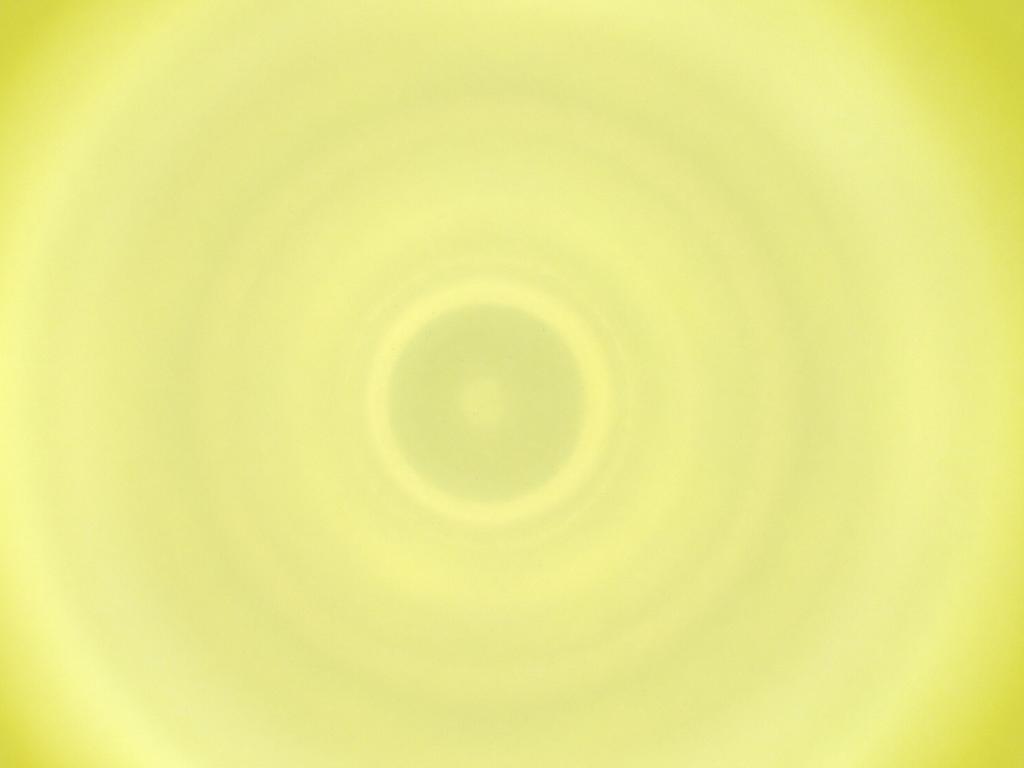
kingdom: Animalia
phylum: Arthropoda
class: Insecta
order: Diptera
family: Cecidomyiidae
